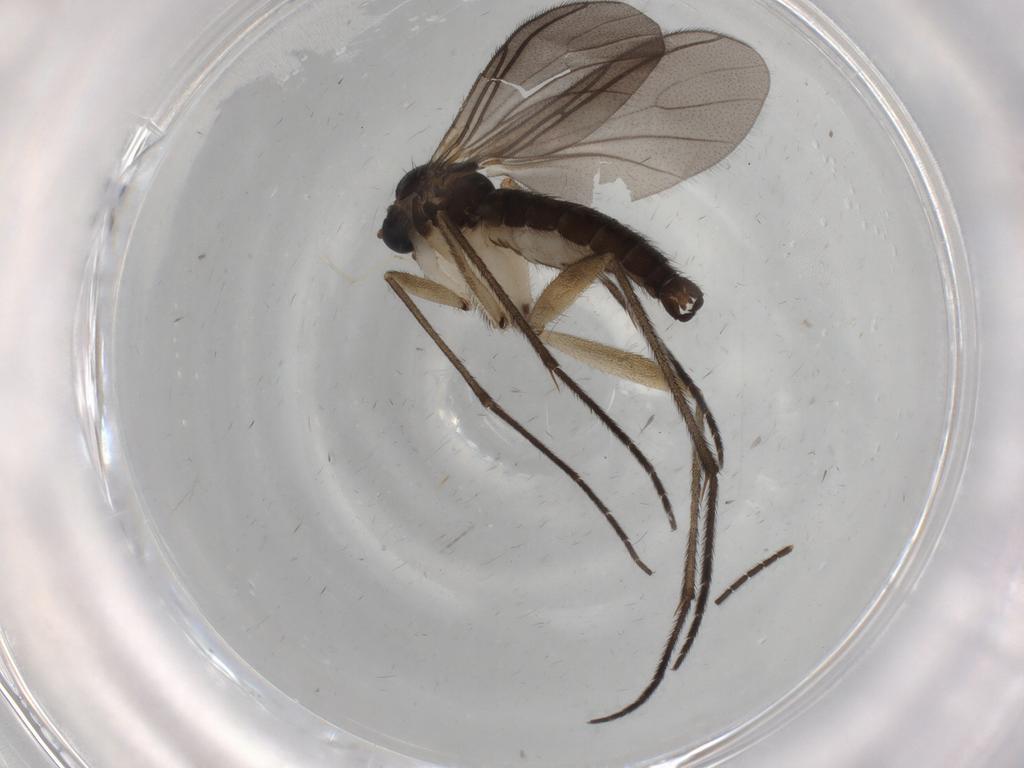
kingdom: Animalia
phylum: Arthropoda
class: Insecta
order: Diptera
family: Sciaridae
